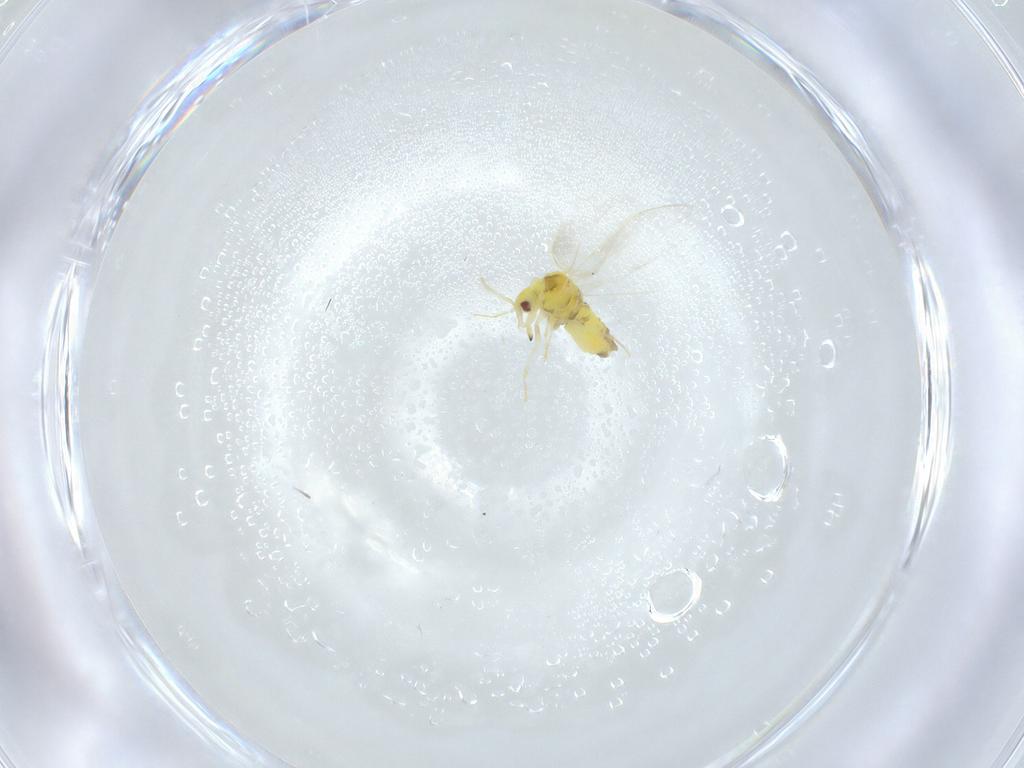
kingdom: Animalia
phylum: Arthropoda
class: Insecta
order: Hemiptera
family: Aleyrodidae
